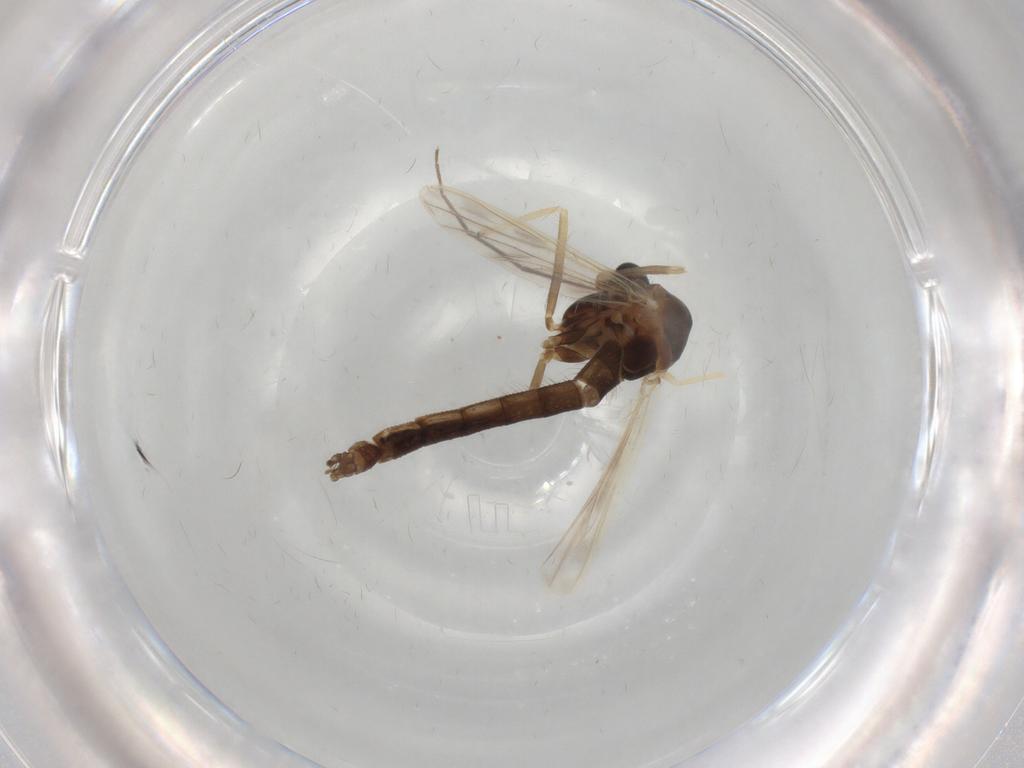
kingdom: Animalia
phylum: Arthropoda
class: Insecta
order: Diptera
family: Chironomidae
